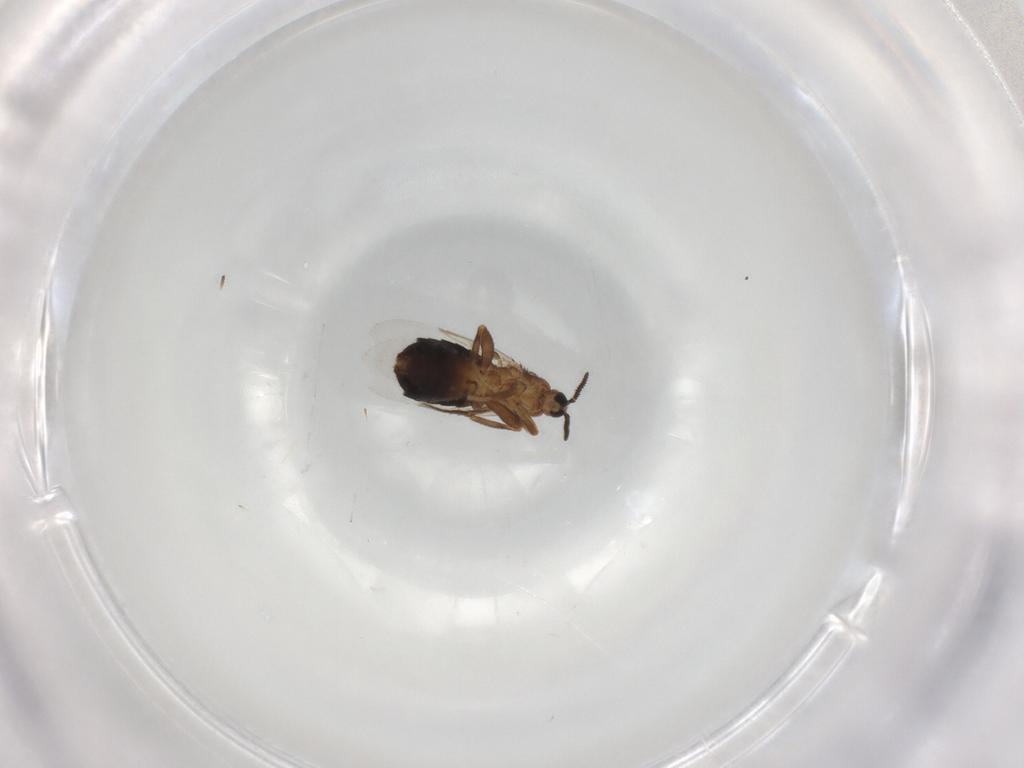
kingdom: Animalia
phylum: Arthropoda
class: Insecta
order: Diptera
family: Scatopsidae
